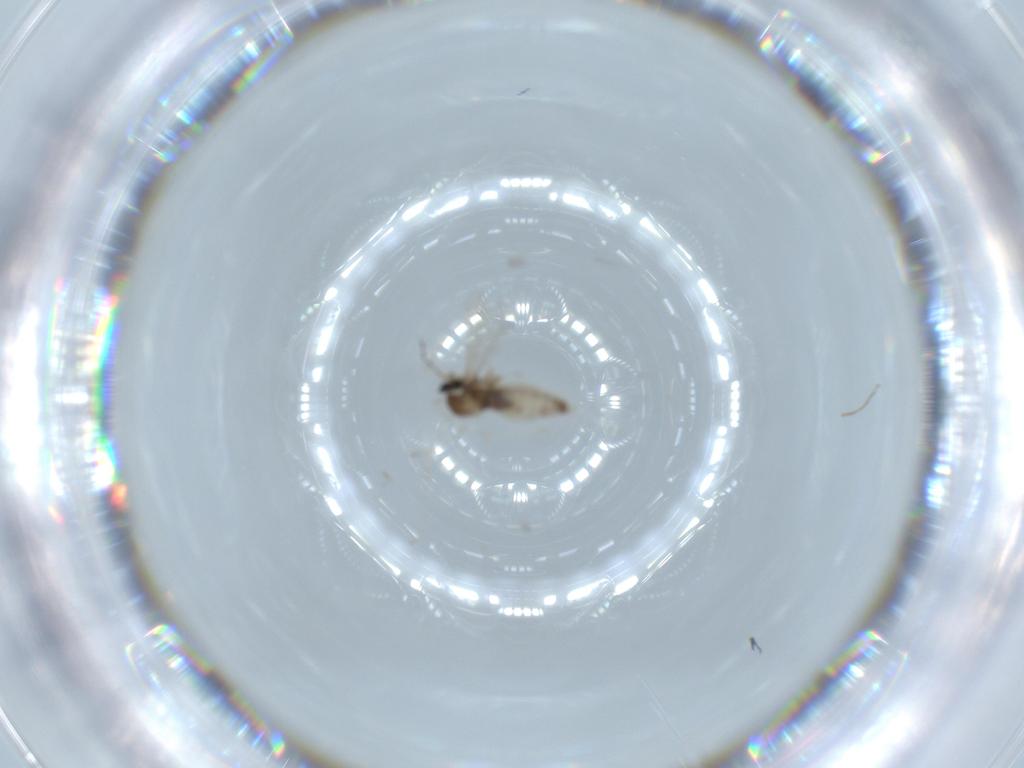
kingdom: Animalia
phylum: Arthropoda
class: Insecta
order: Diptera
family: Cecidomyiidae
